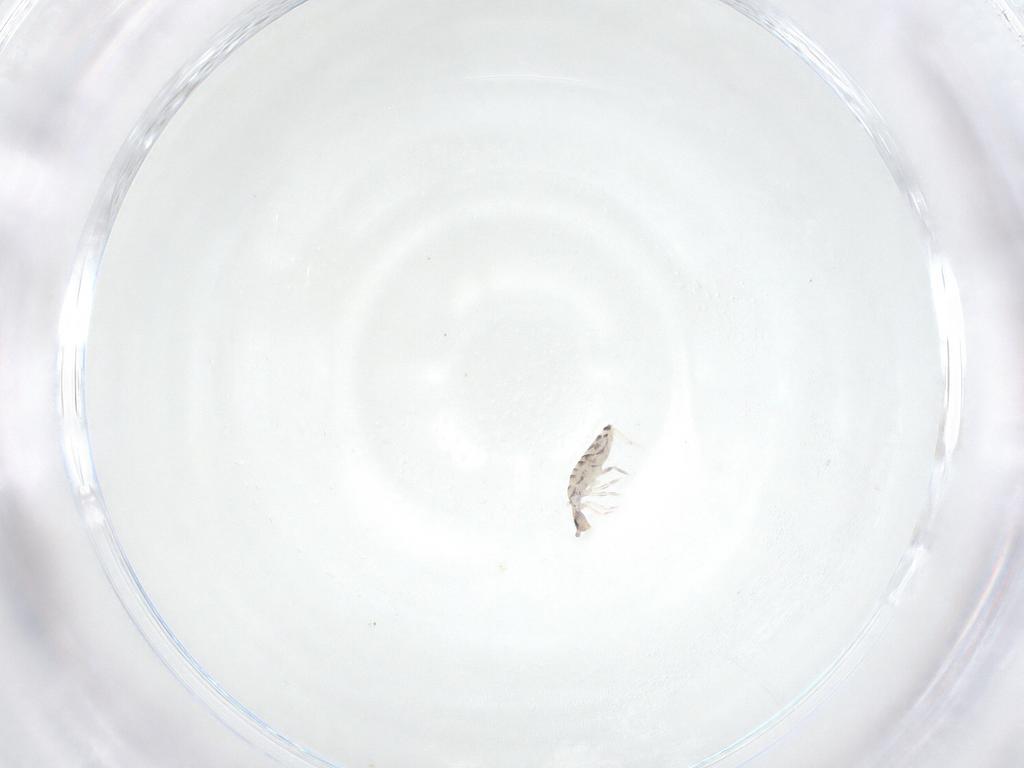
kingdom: Animalia
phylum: Arthropoda
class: Collembola
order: Entomobryomorpha
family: Entomobryidae
